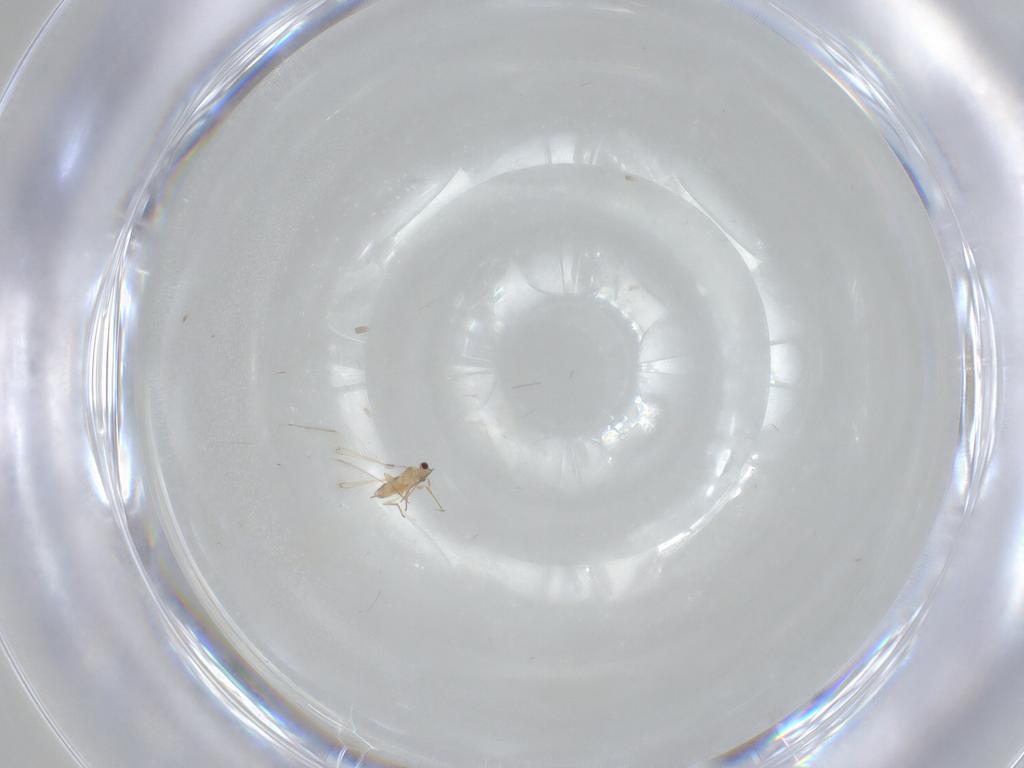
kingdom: Animalia
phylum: Arthropoda
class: Insecta
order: Hymenoptera
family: Mymaridae
